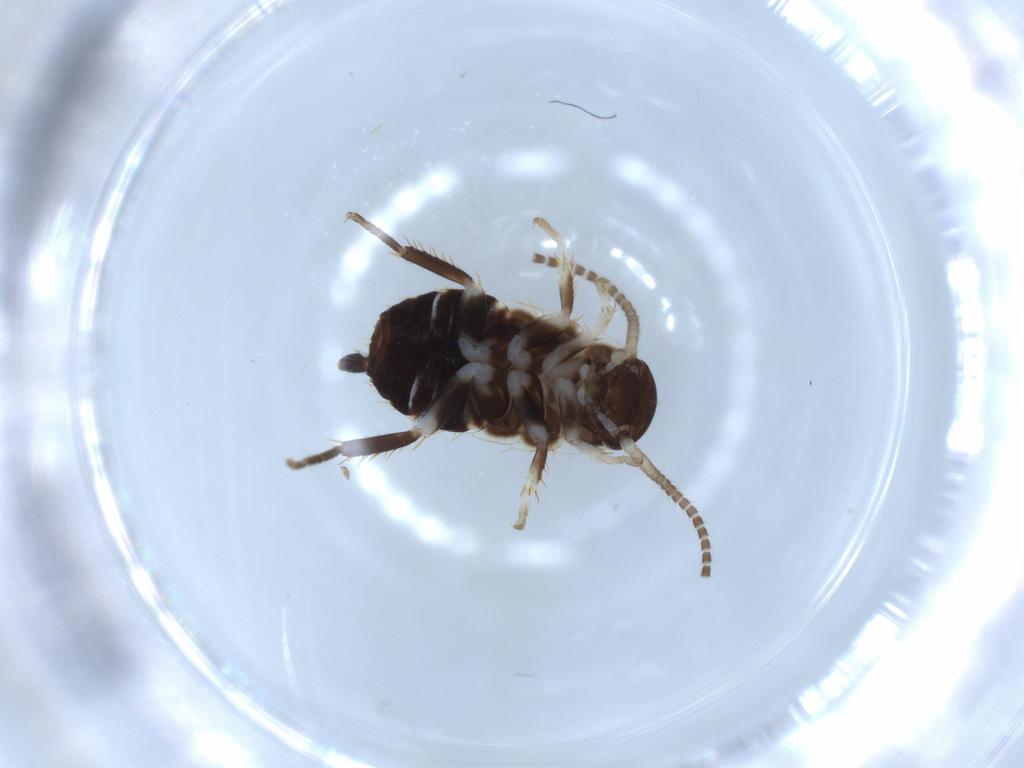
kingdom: Animalia
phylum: Arthropoda
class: Insecta
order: Blattodea
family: Ectobiidae
